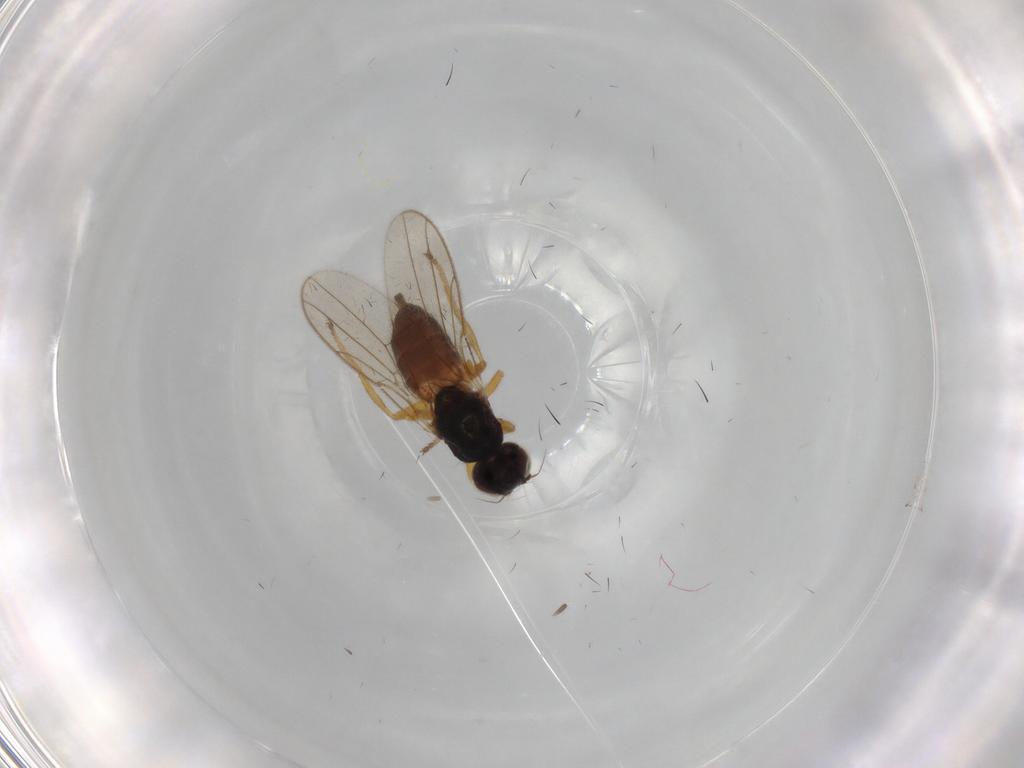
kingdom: Animalia
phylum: Arthropoda
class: Insecta
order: Diptera
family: Chloropidae
